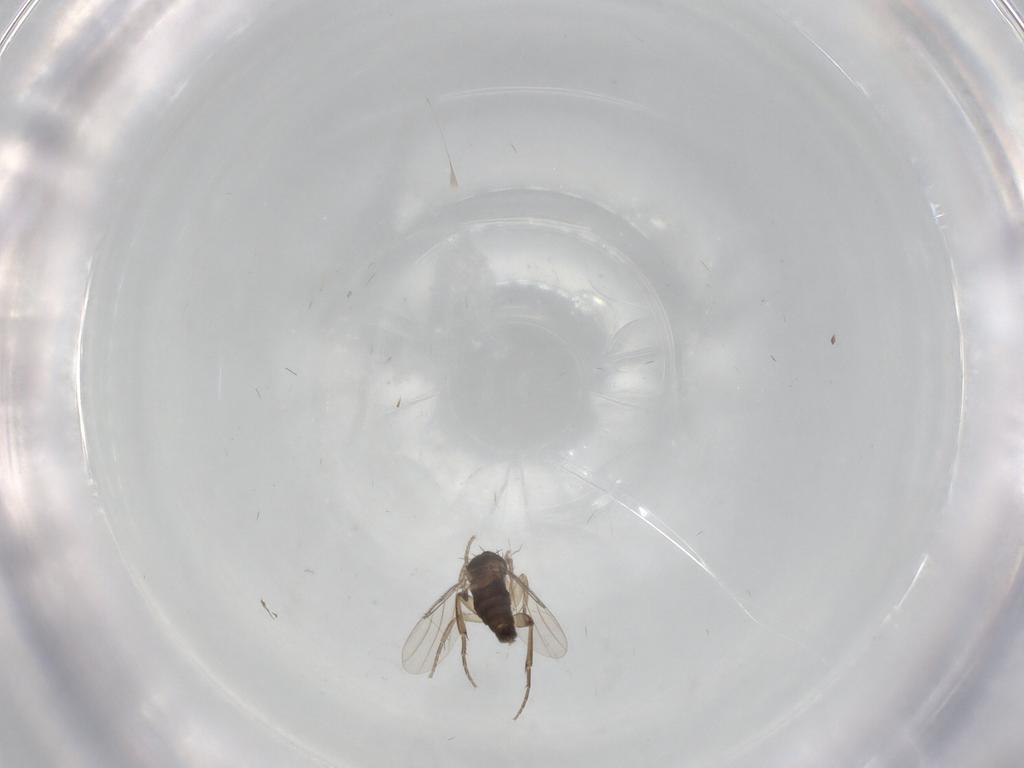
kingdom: Animalia
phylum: Arthropoda
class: Insecta
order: Diptera
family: Phoridae
